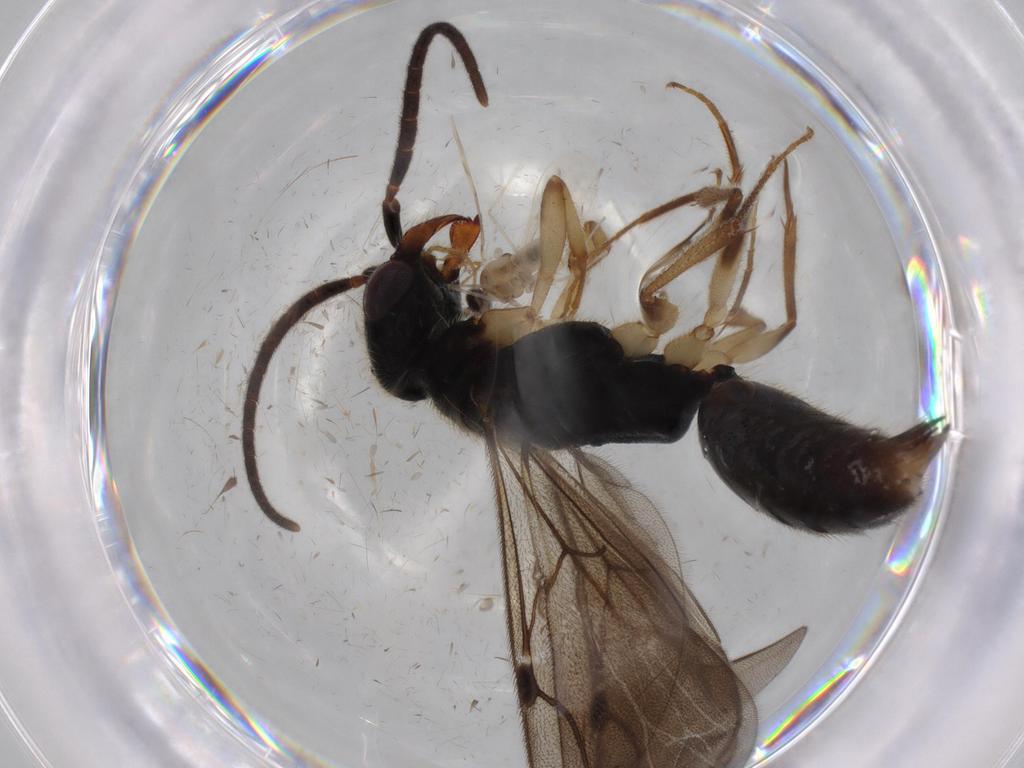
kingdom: Animalia
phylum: Arthropoda
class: Insecta
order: Hymenoptera
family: Bethylidae
